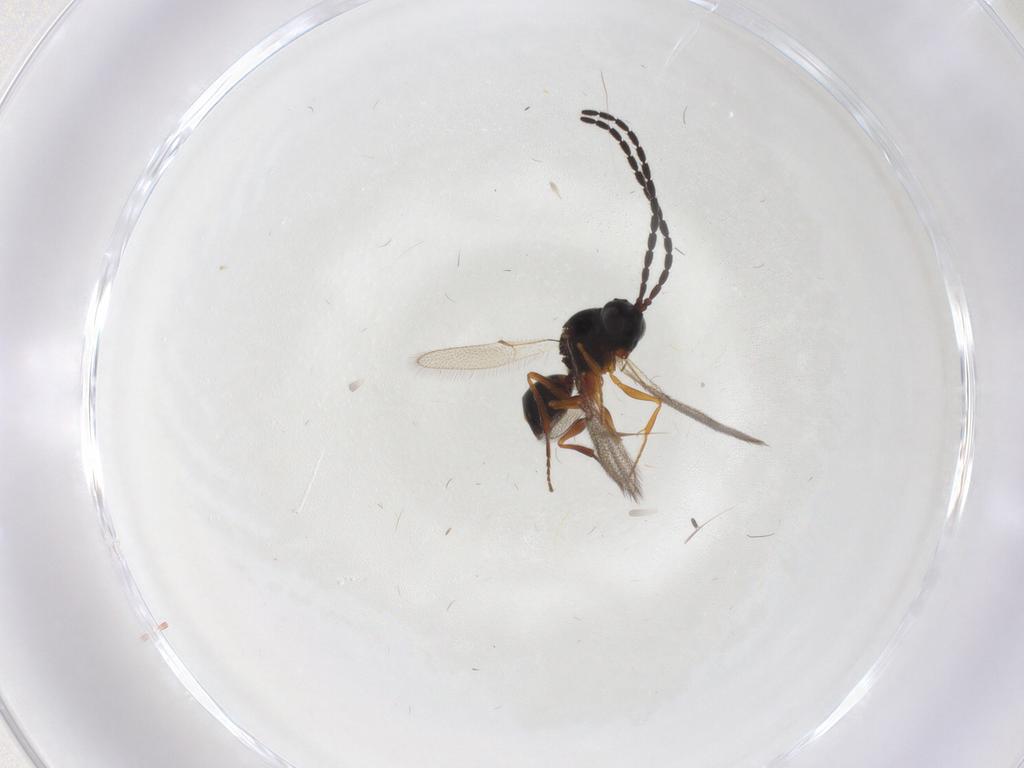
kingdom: Animalia
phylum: Arthropoda
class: Insecta
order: Hymenoptera
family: Figitidae
